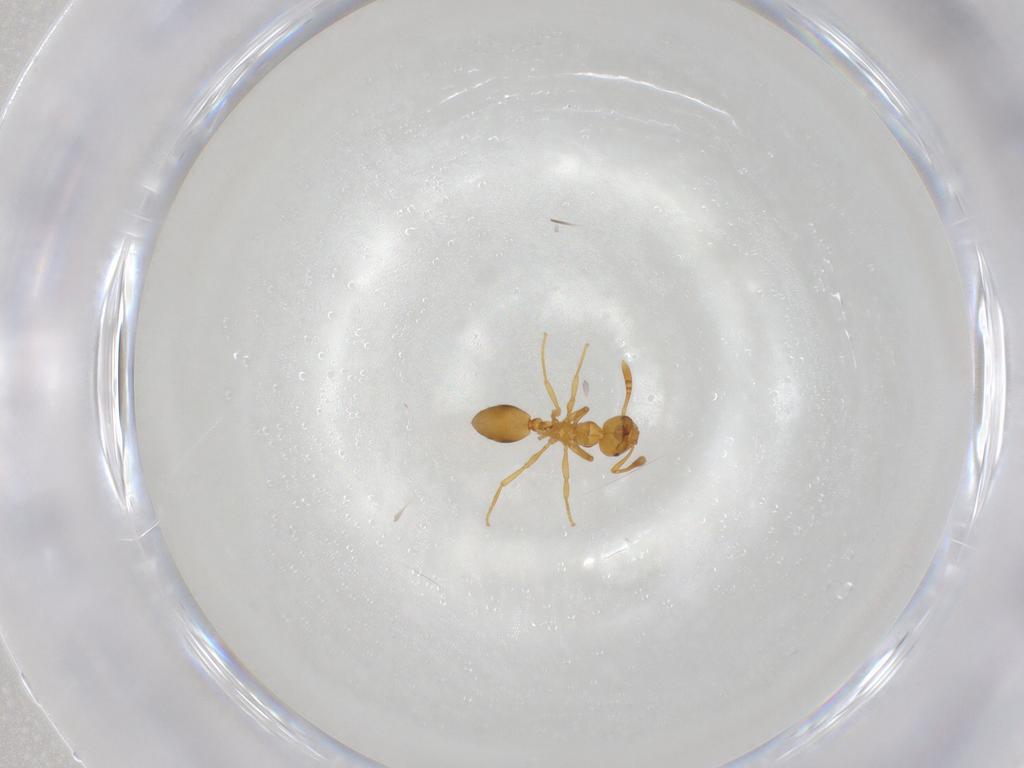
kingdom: Animalia
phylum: Arthropoda
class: Insecta
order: Hymenoptera
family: Formicidae
